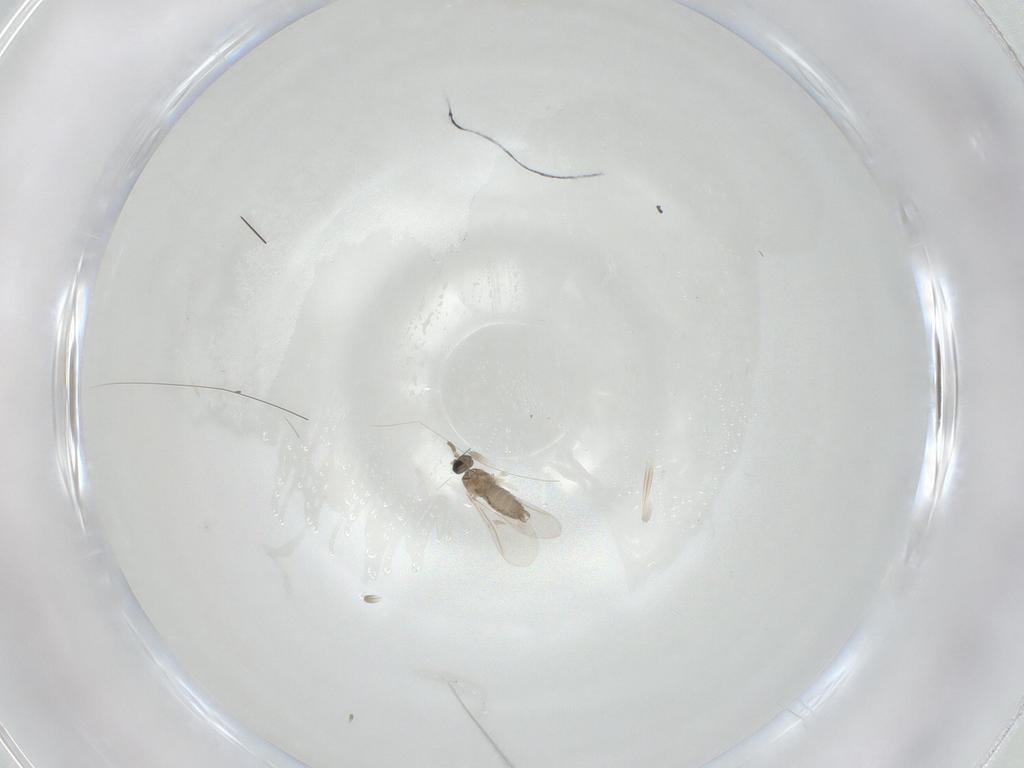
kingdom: Animalia
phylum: Arthropoda
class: Insecta
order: Diptera
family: Cecidomyiidae
